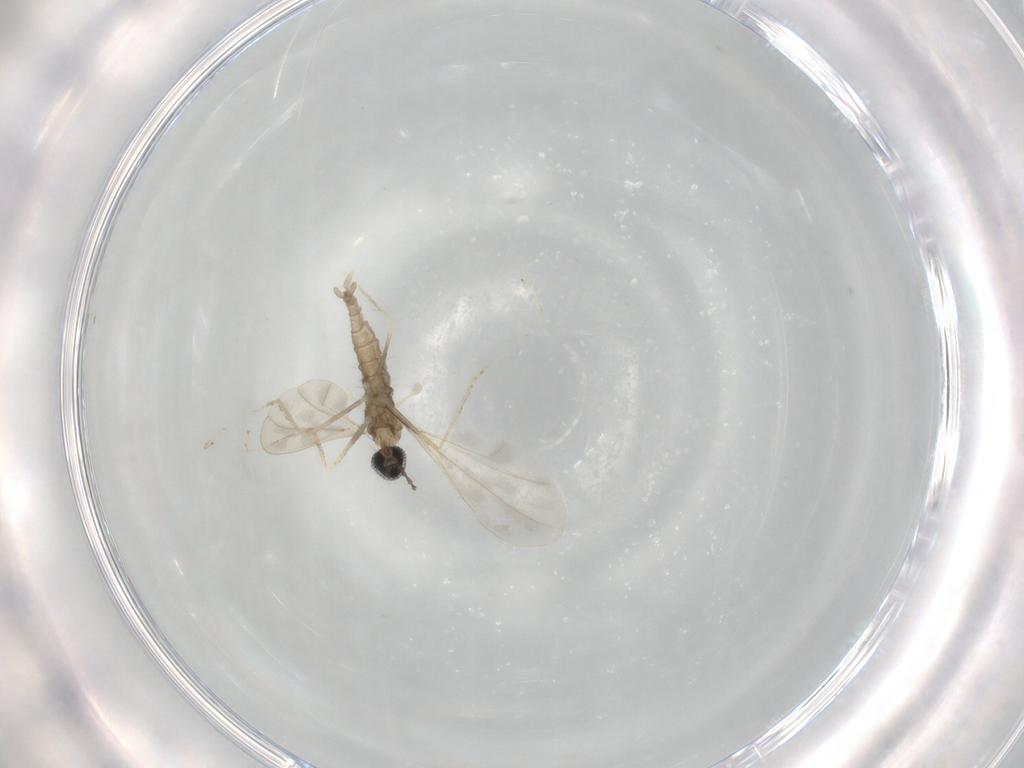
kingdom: Animalia
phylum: Arthropoda
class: Insecta
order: Diptera
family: Cecidomyiidae
